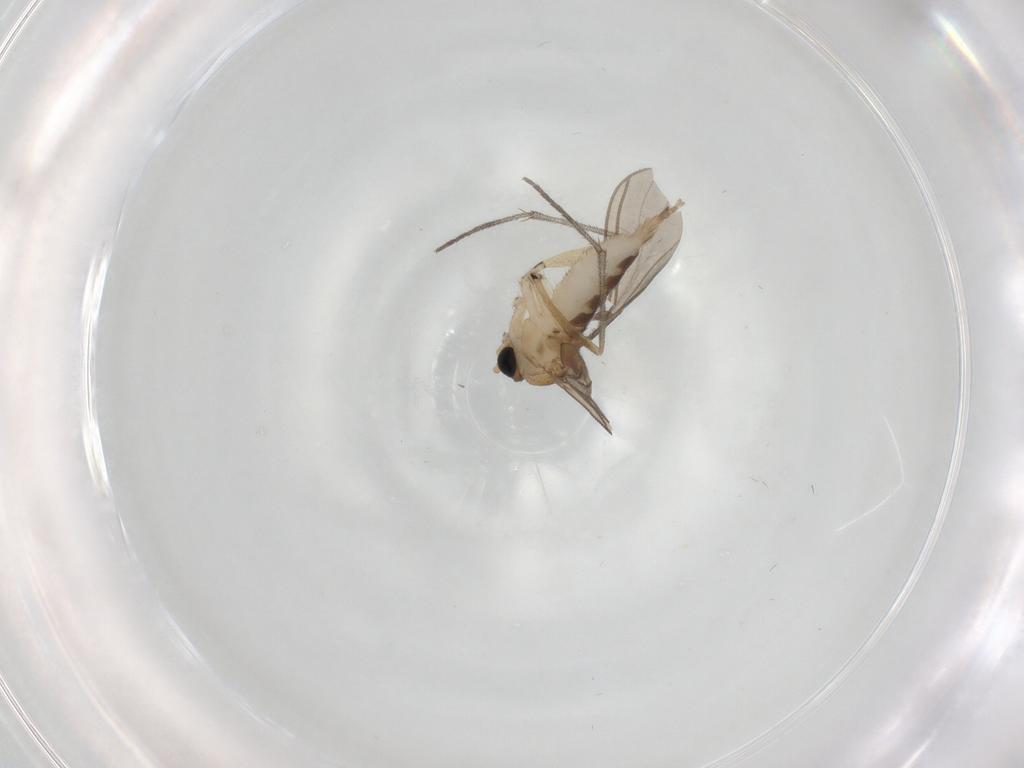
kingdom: Animalia
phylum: Arthropoda
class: Insecta
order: Diptera
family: Sciaridae
